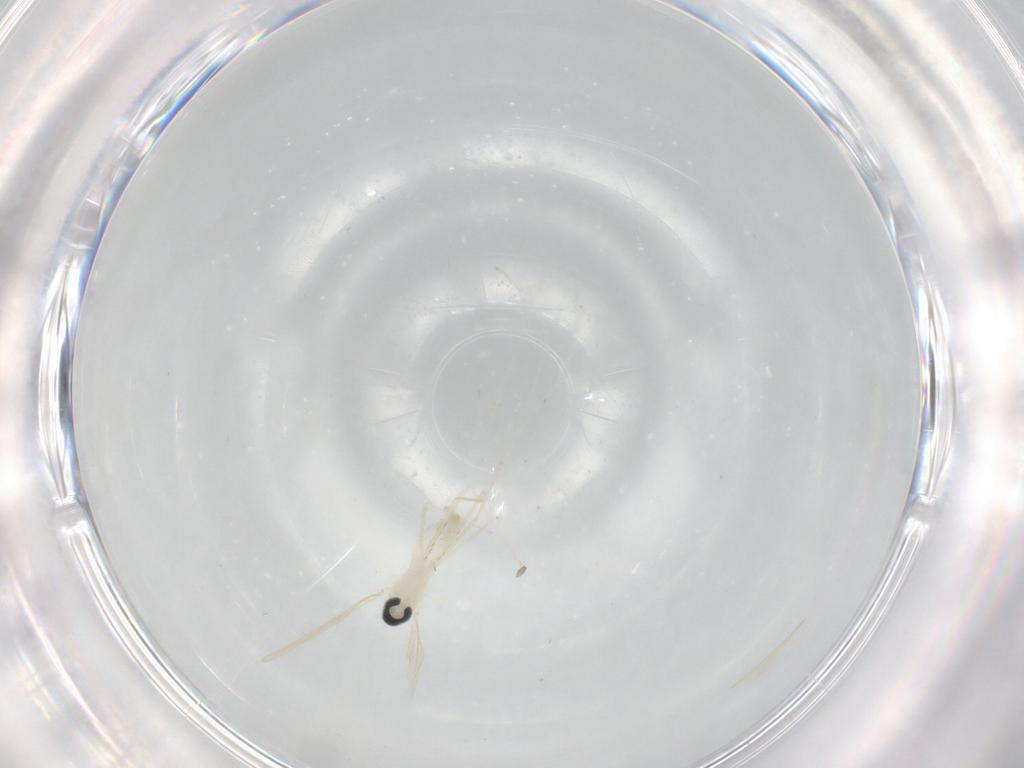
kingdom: Animalia
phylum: Arthropoda
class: Insecta
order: Diptera
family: Cecidomyiidae
